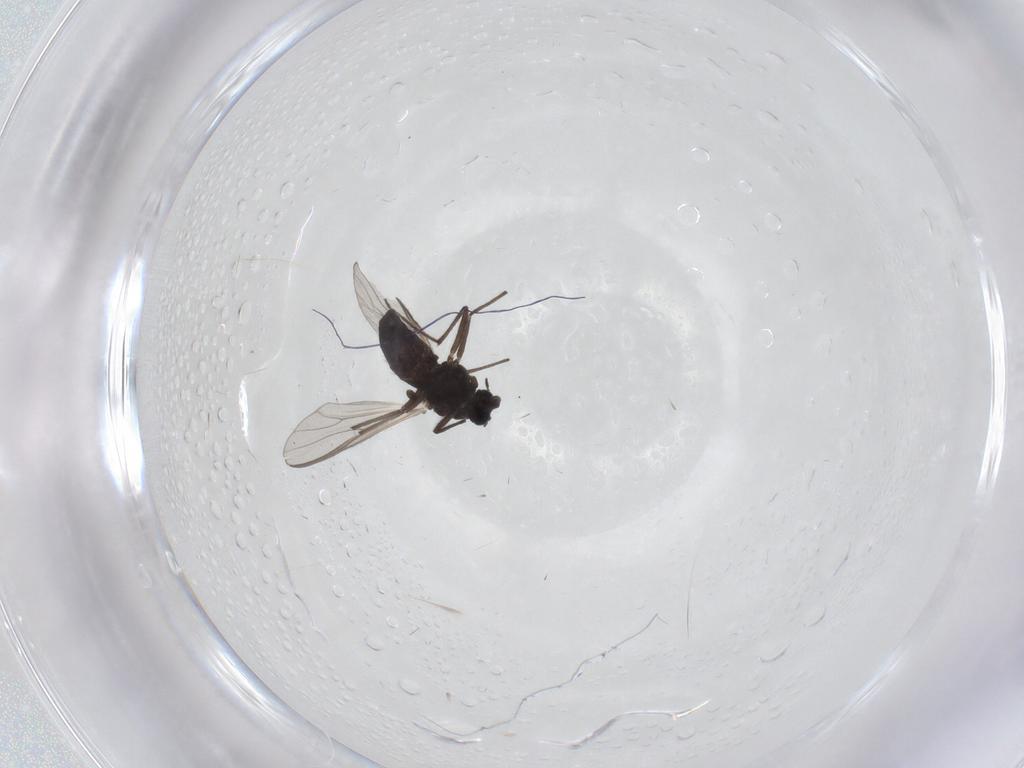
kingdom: Animalia
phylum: Arthropoda
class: Insecta
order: Diptera
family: Chironomidae
